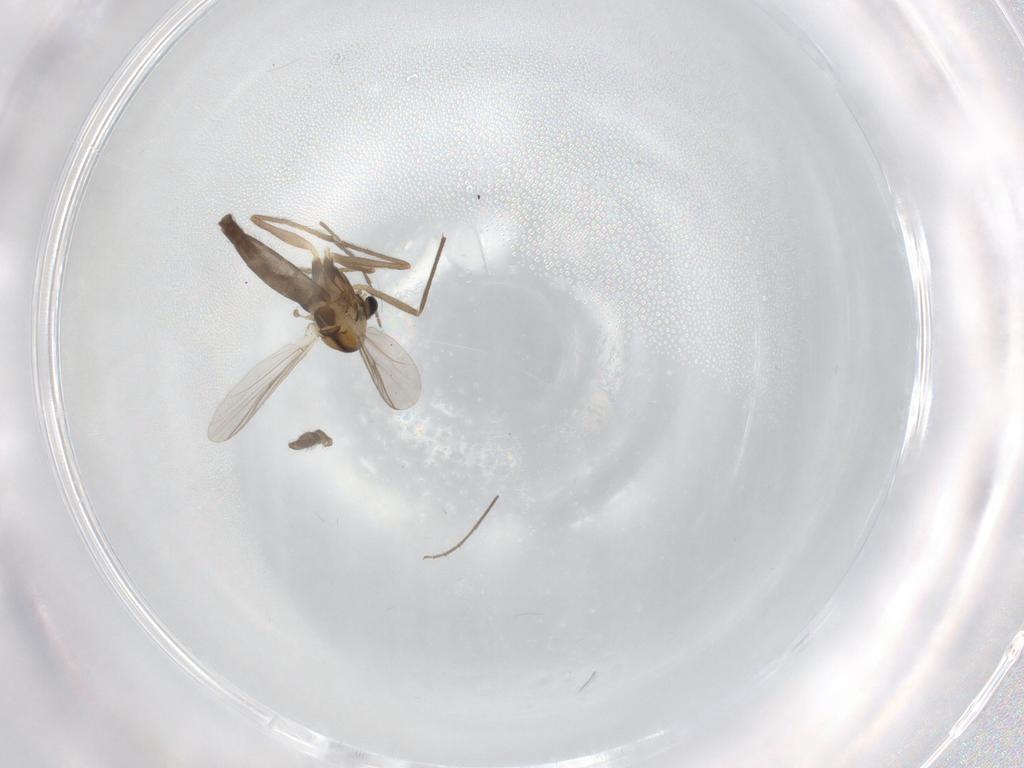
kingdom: Animalia
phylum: Arthropoda
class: Insecta
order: Diptera
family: Chironomidae
